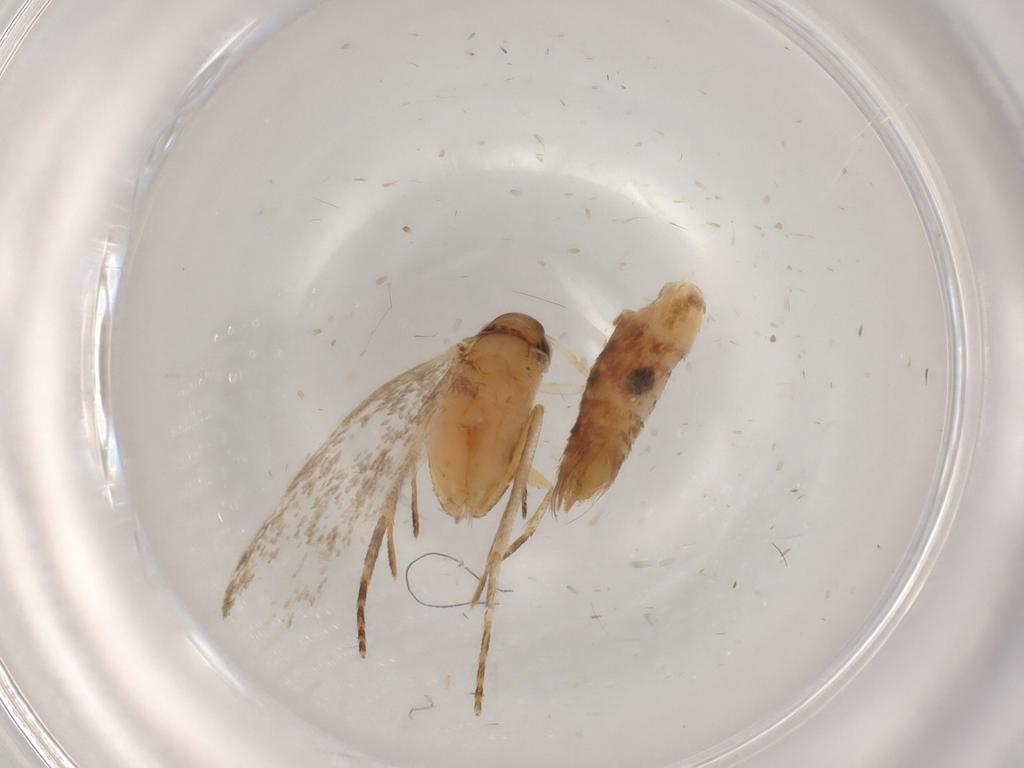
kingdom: Animalia
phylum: Arthropoda
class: Insecta
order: Lepidoptera
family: Gelechiidae
